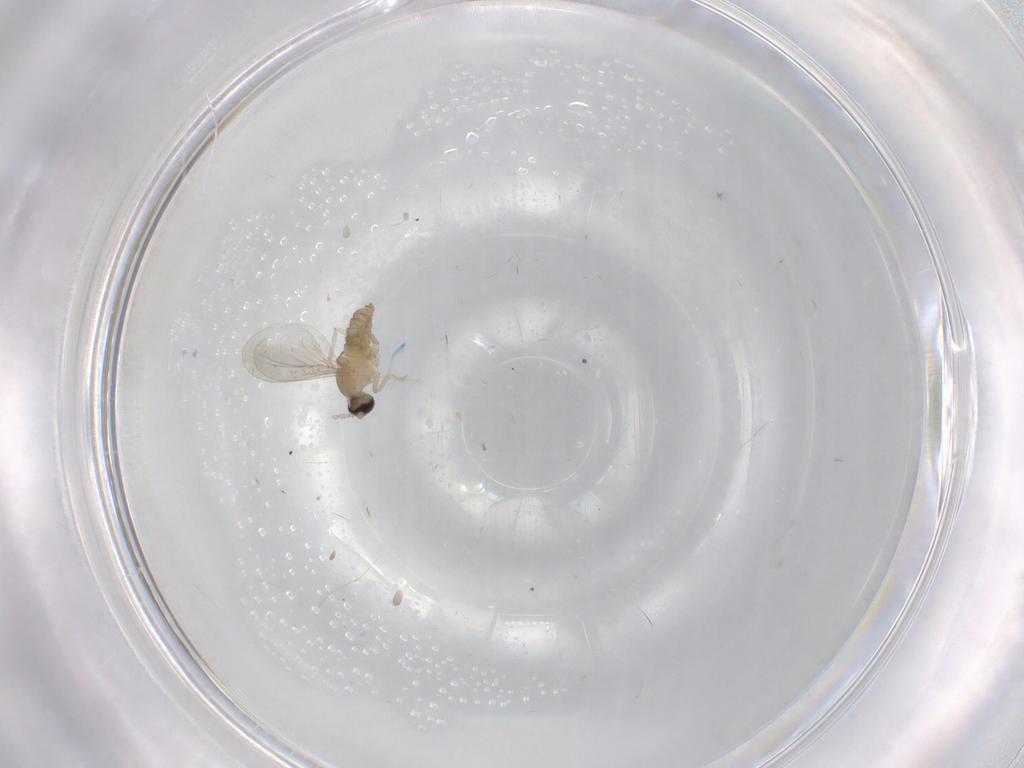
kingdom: Animalia
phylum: Arthropoda
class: Insecta
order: Diptera
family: Cecidomyiidae
